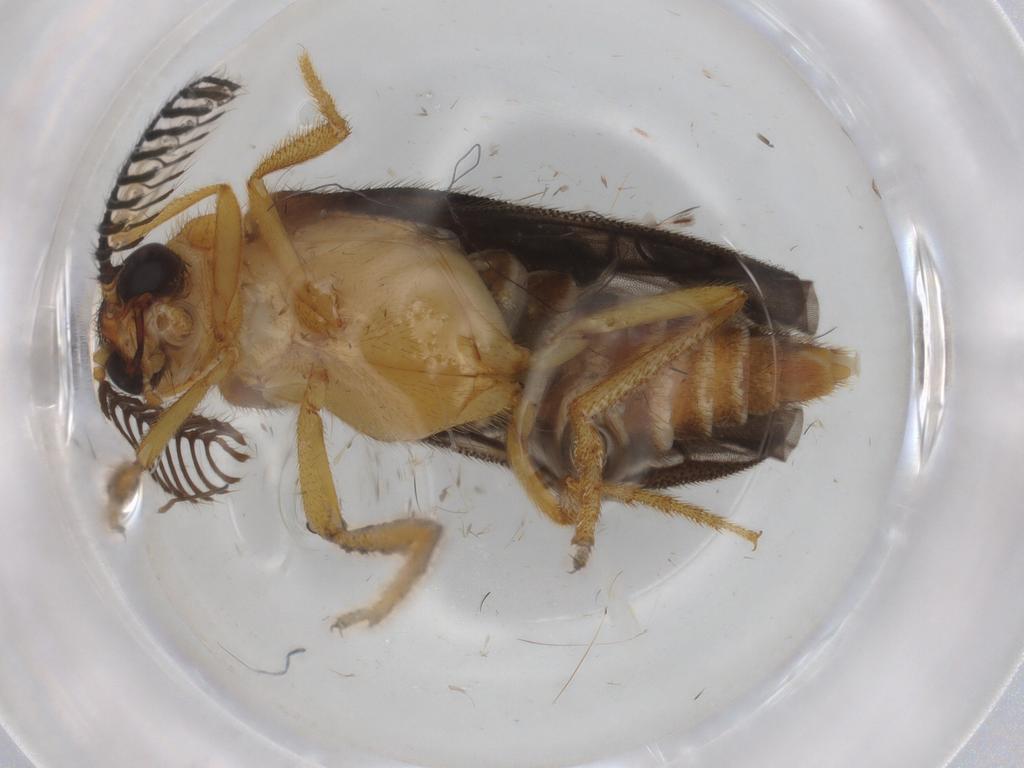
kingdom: Animalia
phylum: Arthropoda
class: Insecta
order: Coleoptera
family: Rhagophthalmidae
